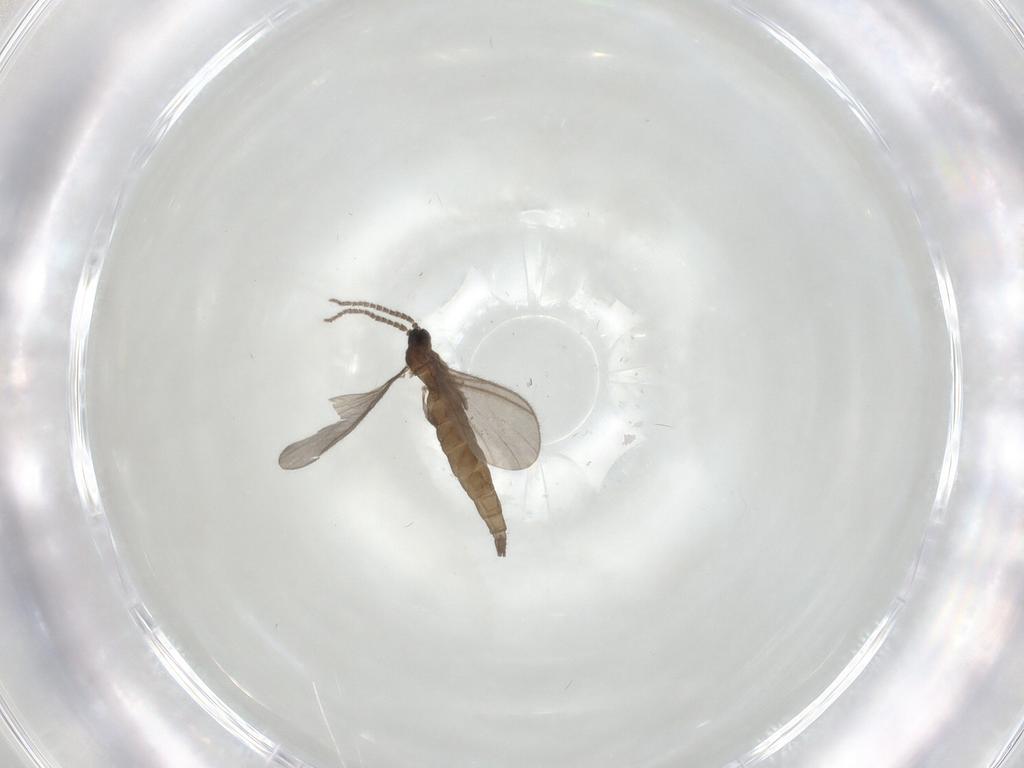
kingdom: Animalia
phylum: Arthropoda
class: Insecta
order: Diptera
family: Sciaridae
